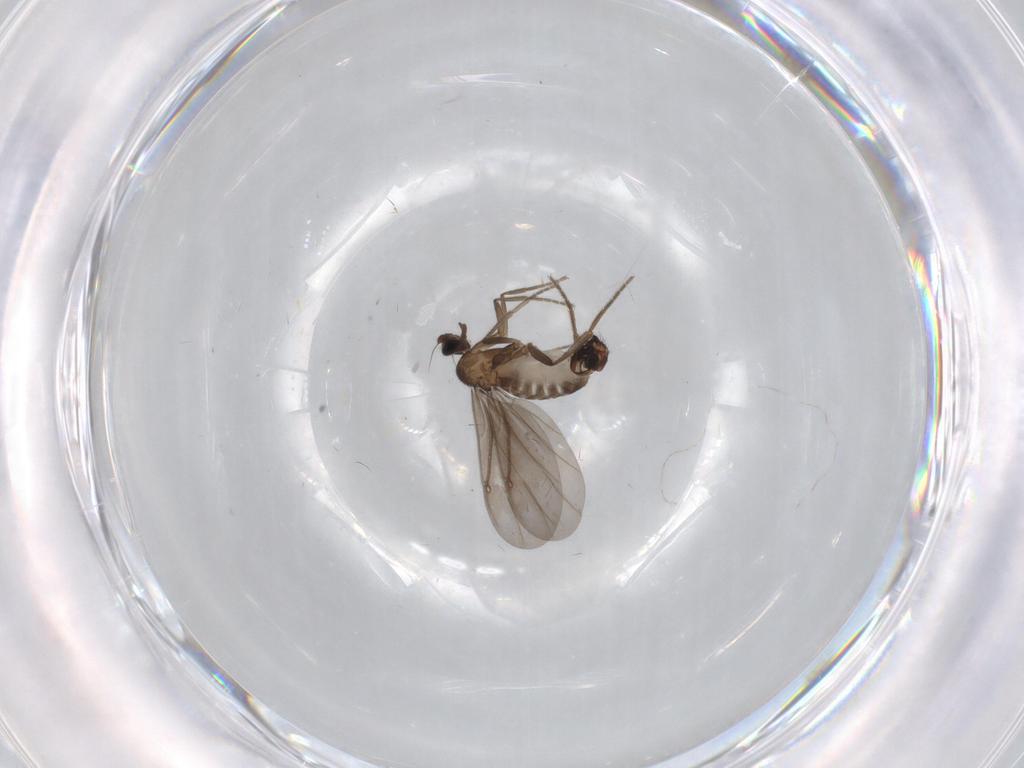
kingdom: Animalia
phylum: Arthropoda
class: Insecta
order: Diptera
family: Phoridae
